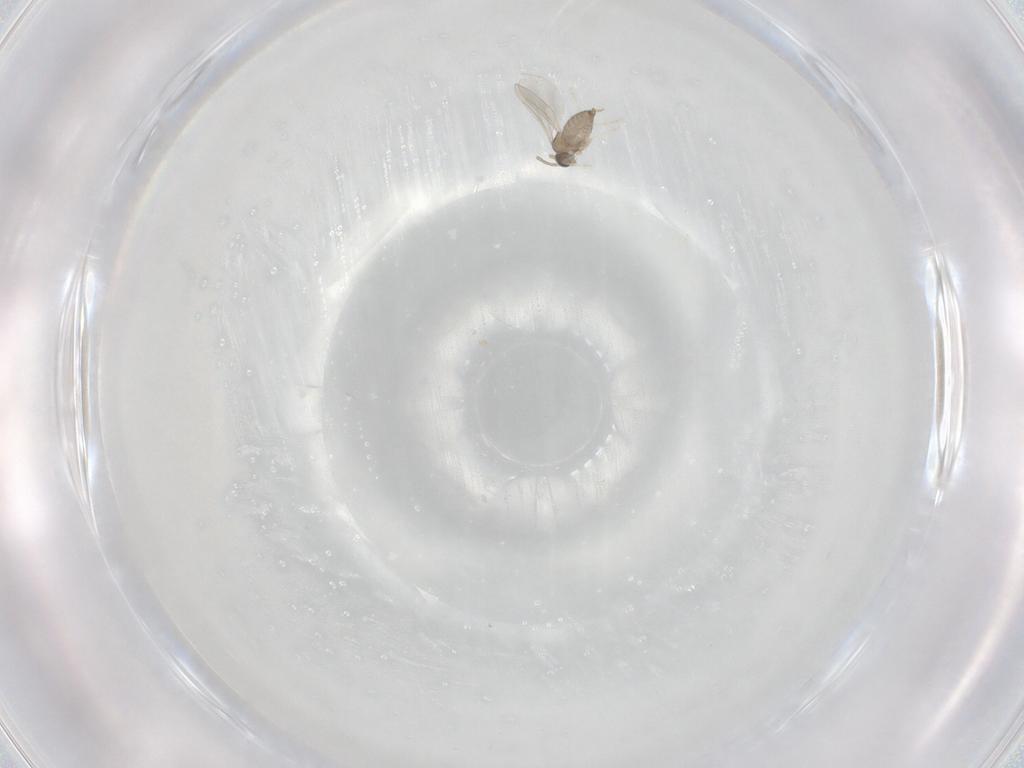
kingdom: Animalia
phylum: Arthropoda
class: Insecta
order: Diptera
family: Cecidomyiidae
